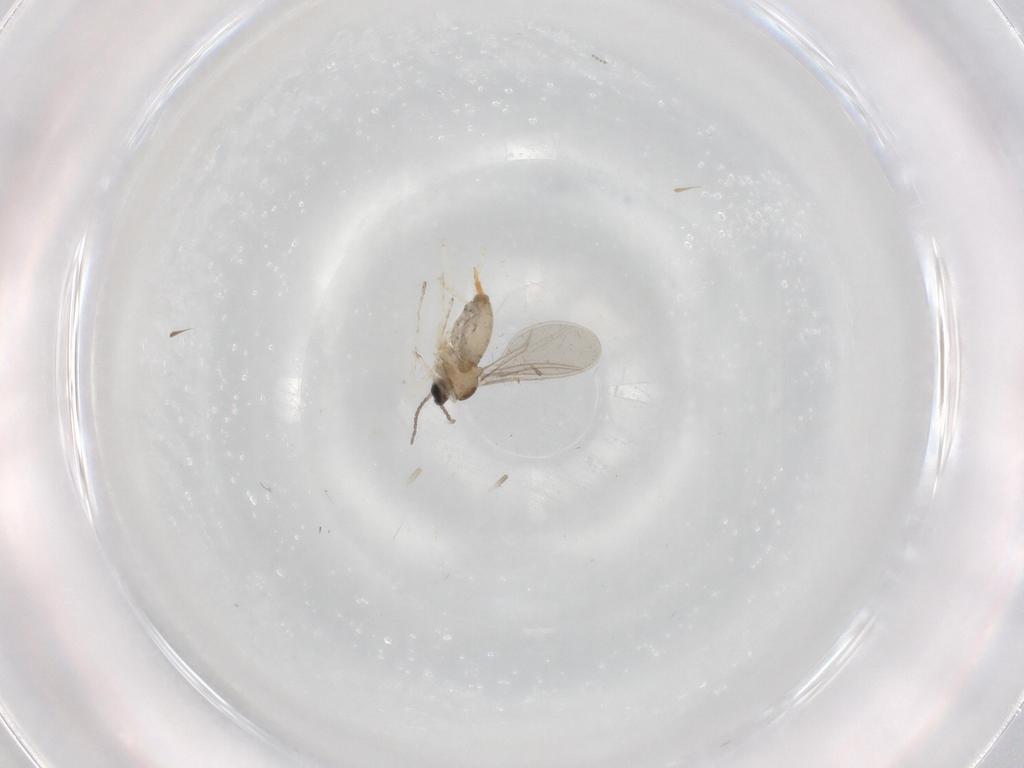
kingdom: Animalia
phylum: Arthropoda
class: Insecta
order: Diptera
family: Cecidomyiidae
